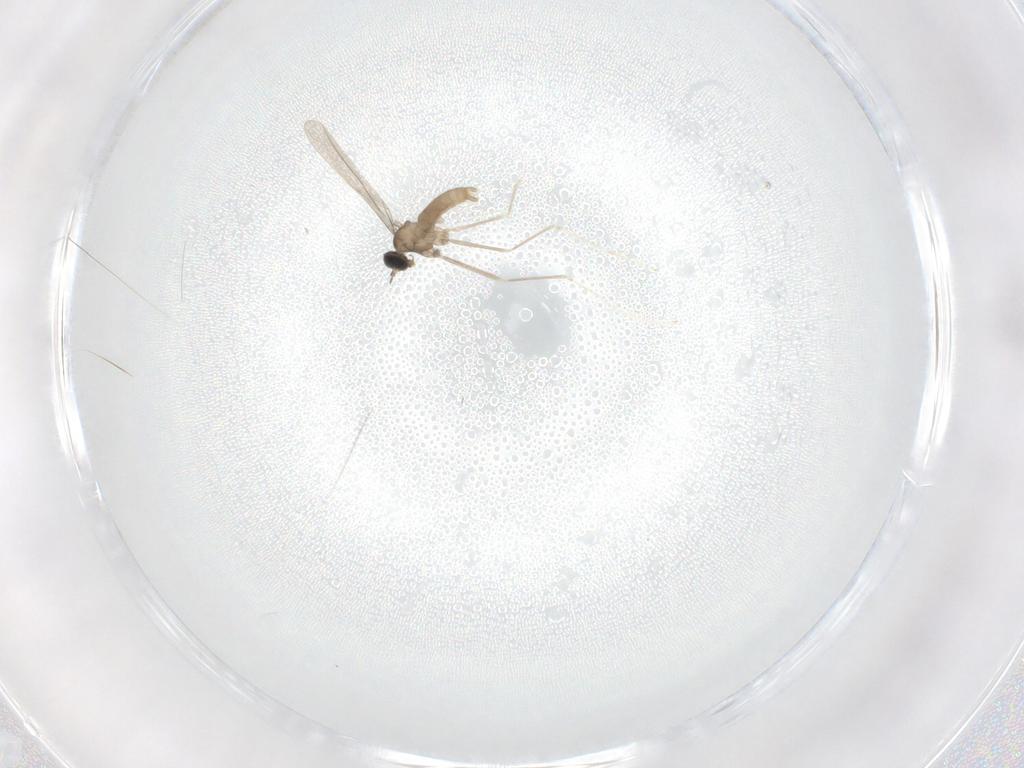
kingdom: Animalia
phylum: Arthropoda
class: Insecta
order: Diptera
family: Cecidomyiidae
